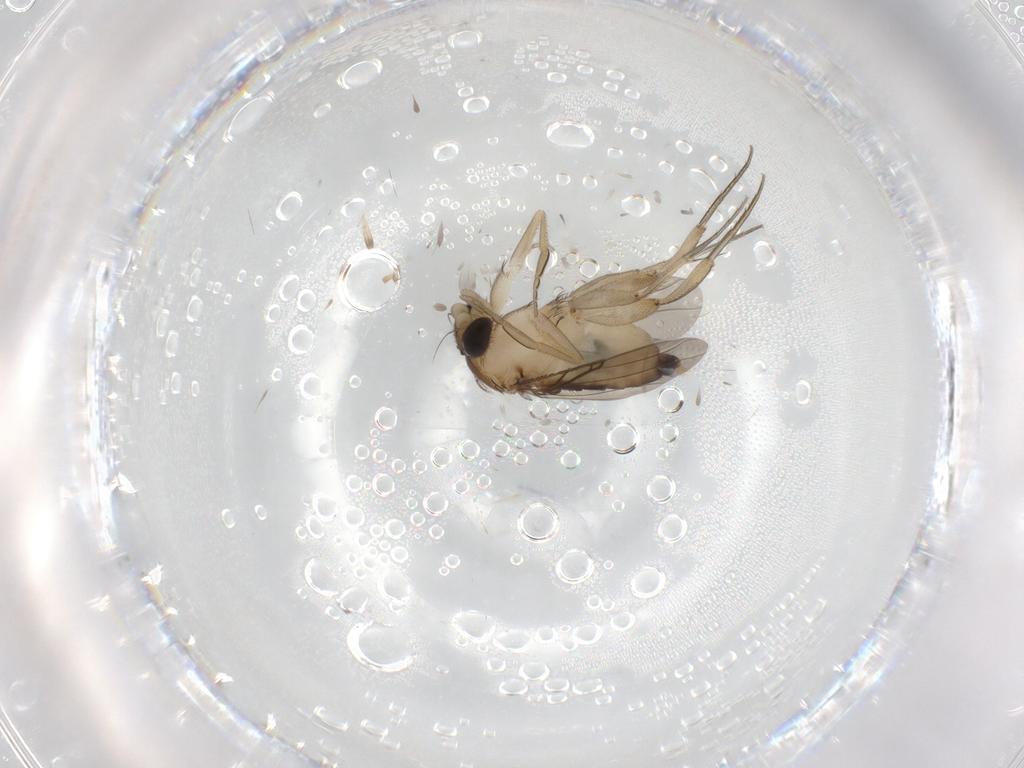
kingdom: Animalia
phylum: Arthropoda
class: Insecta
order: Diptera
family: Phoridae
